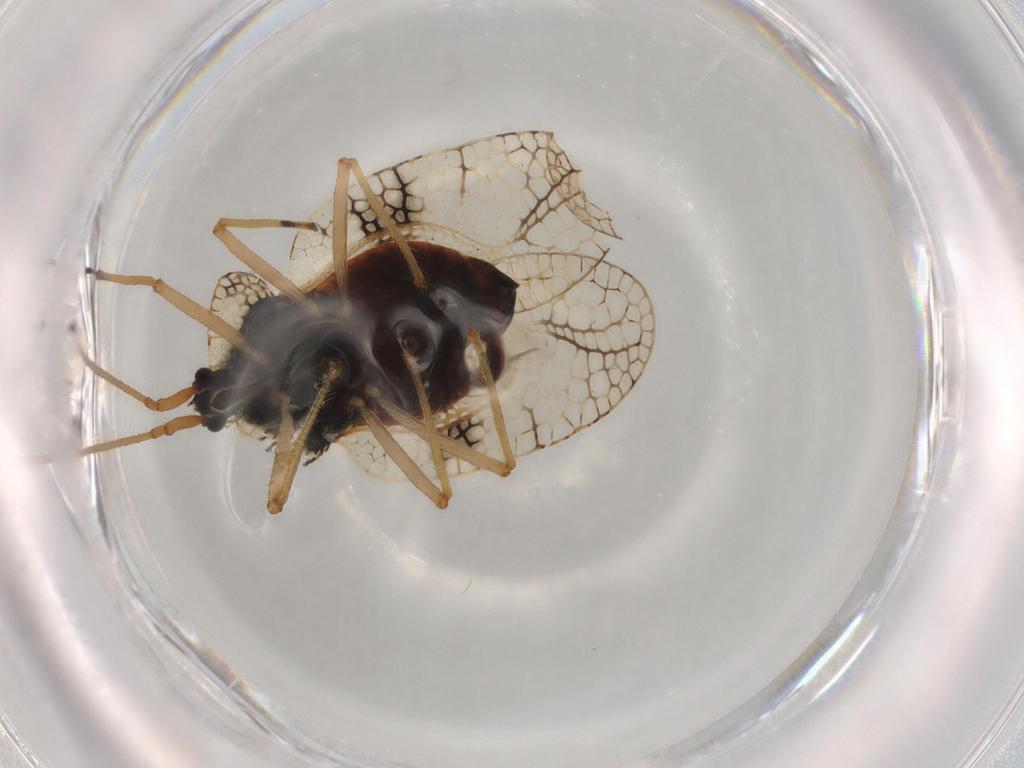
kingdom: Animalia
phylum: Arthropoda
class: Insecta
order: Hemiptera
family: Tingidae
